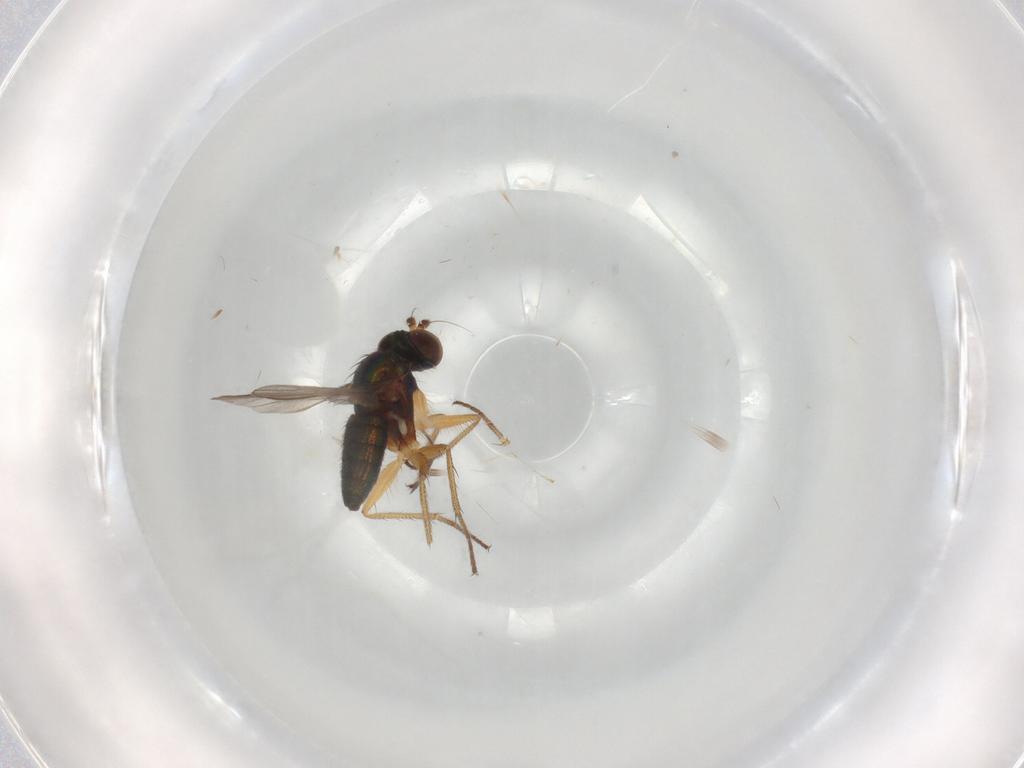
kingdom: Animalia
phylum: Arthropoda
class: Insecta
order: Diptera
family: Cecidomyiidae
